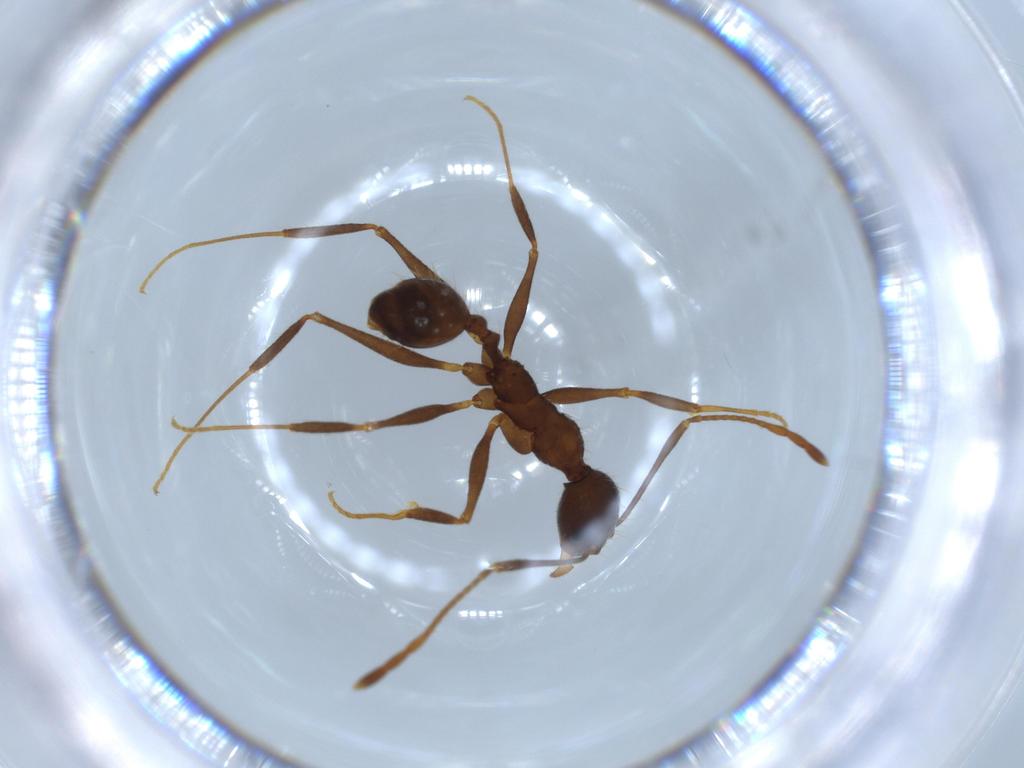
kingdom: Animalia
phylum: Arthropoda
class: Insecta
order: Hymenoptera
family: Formicidae
